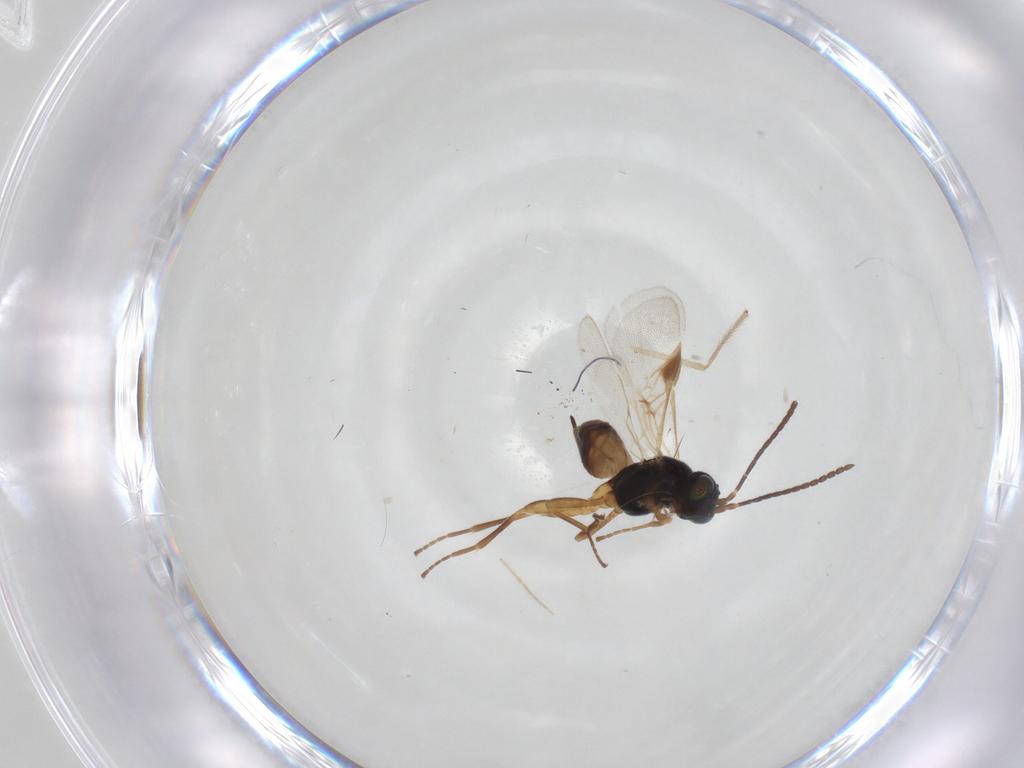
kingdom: Animalia
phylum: Arthropoda
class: Insecta
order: Hymenoptera
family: Braconidae
